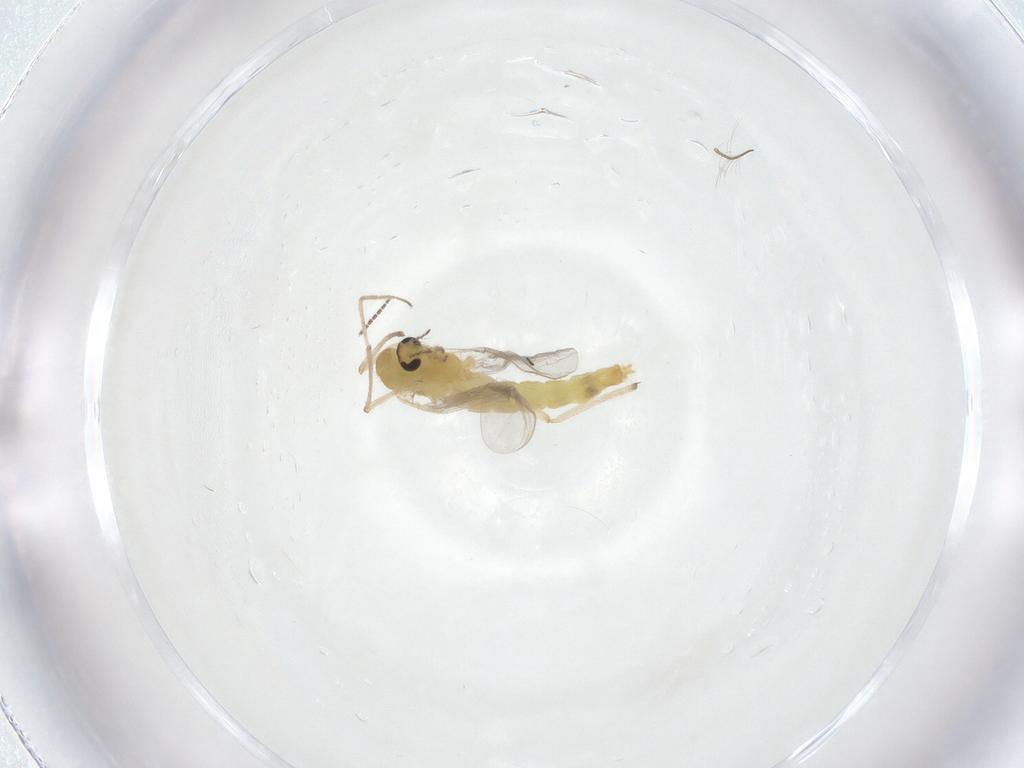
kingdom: Animalia
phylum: Arthropoda
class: Insecta
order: Diptera
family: Chironomidae
